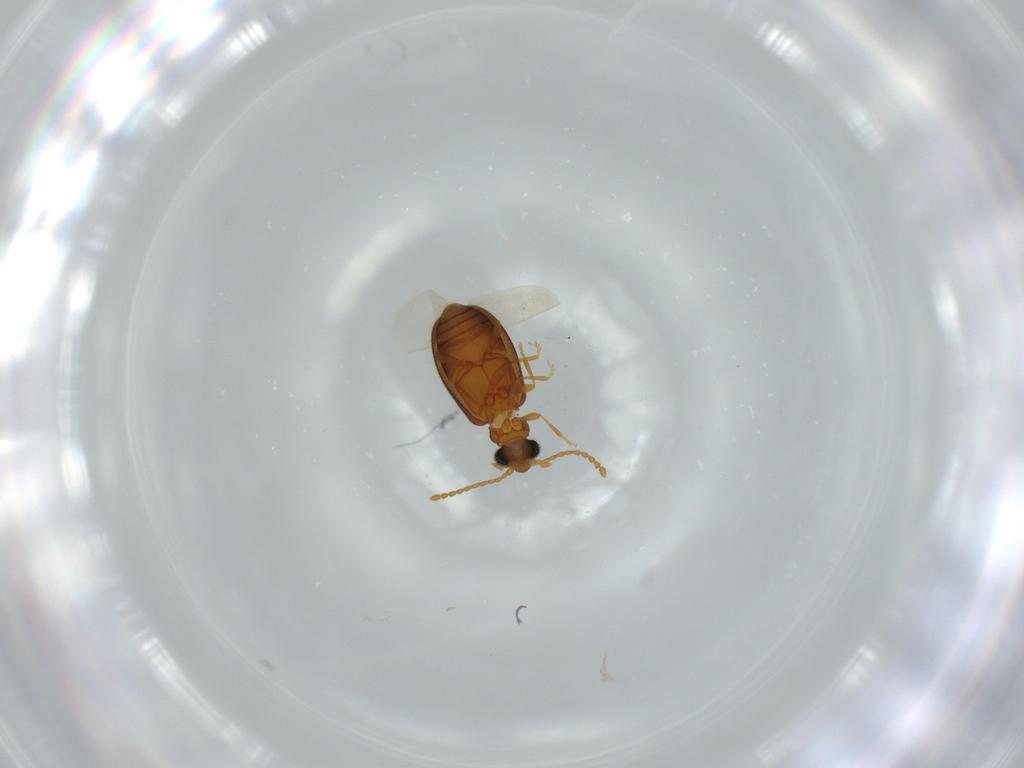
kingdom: Animalia
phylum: Arthropoda
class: Insecta
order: Coleoptera
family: Aderidae
